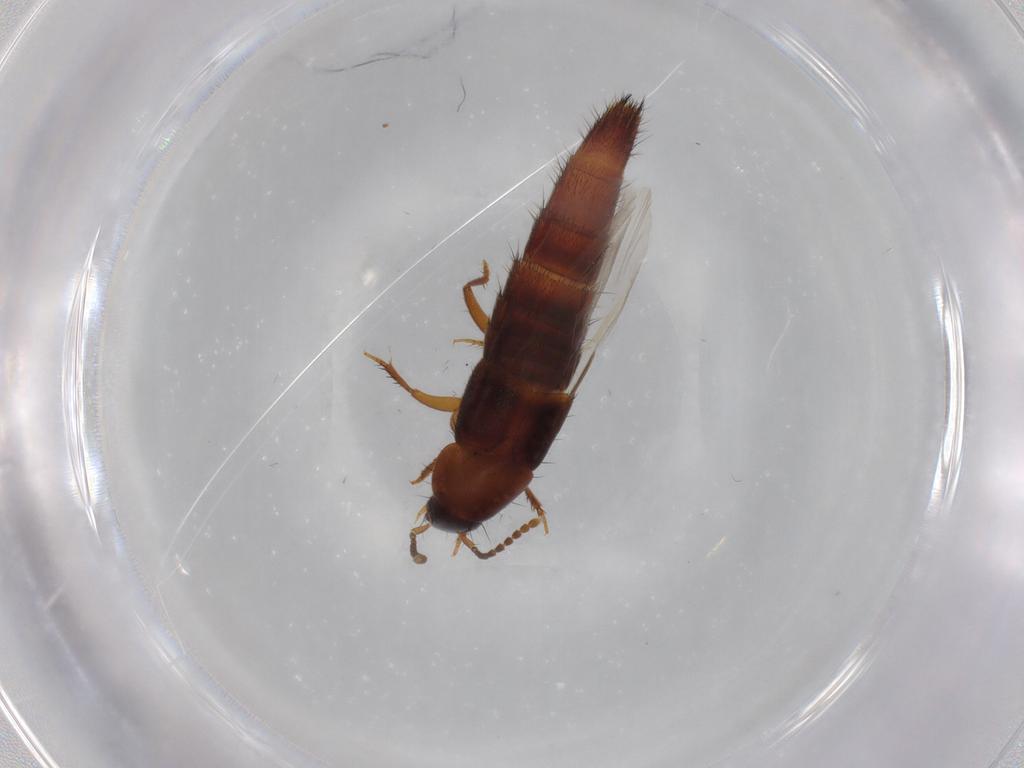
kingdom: Animalia
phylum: Arthropoda
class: Insecta
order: Coleoptera
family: Staphylinidae
